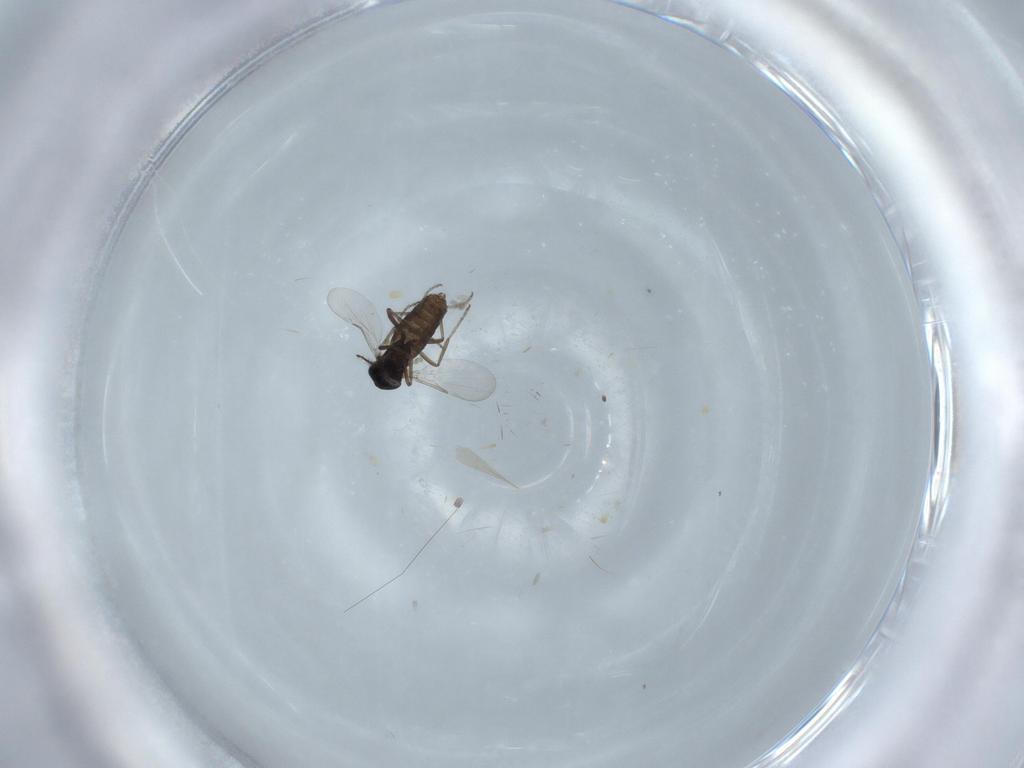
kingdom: Animalia
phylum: Arthropoda
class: Insecta
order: Diptera
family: Ceratopogonidae
